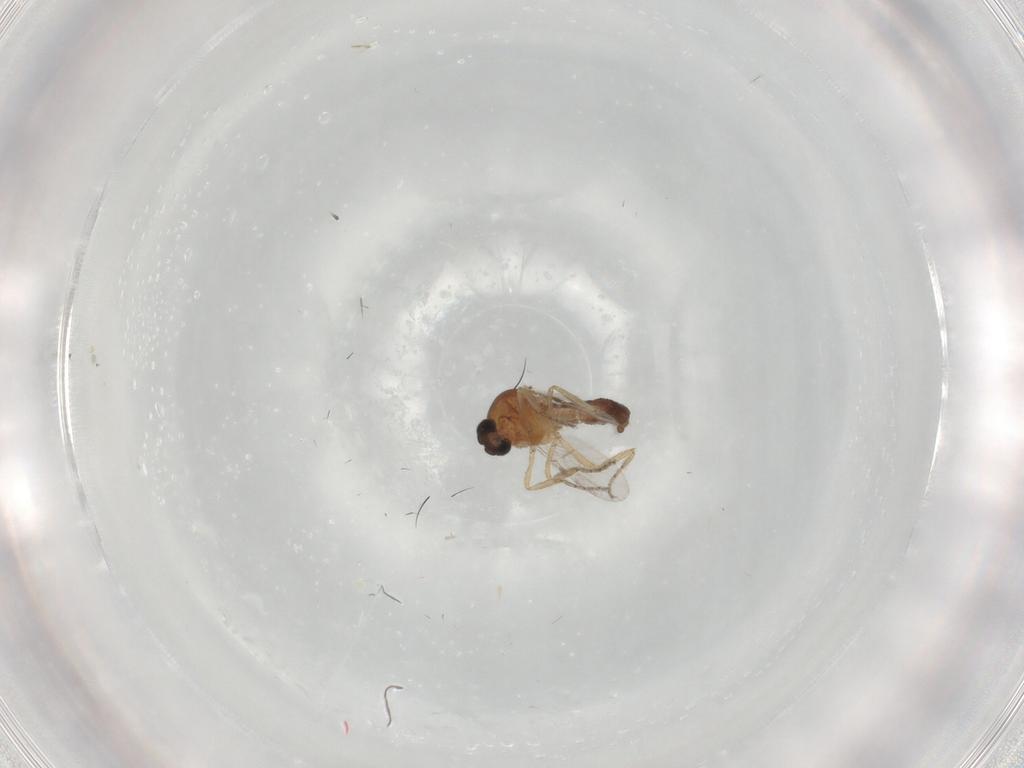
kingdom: Animalia
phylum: Arthropoda
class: Insecta
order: Diptera
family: Ceratopogonidae
